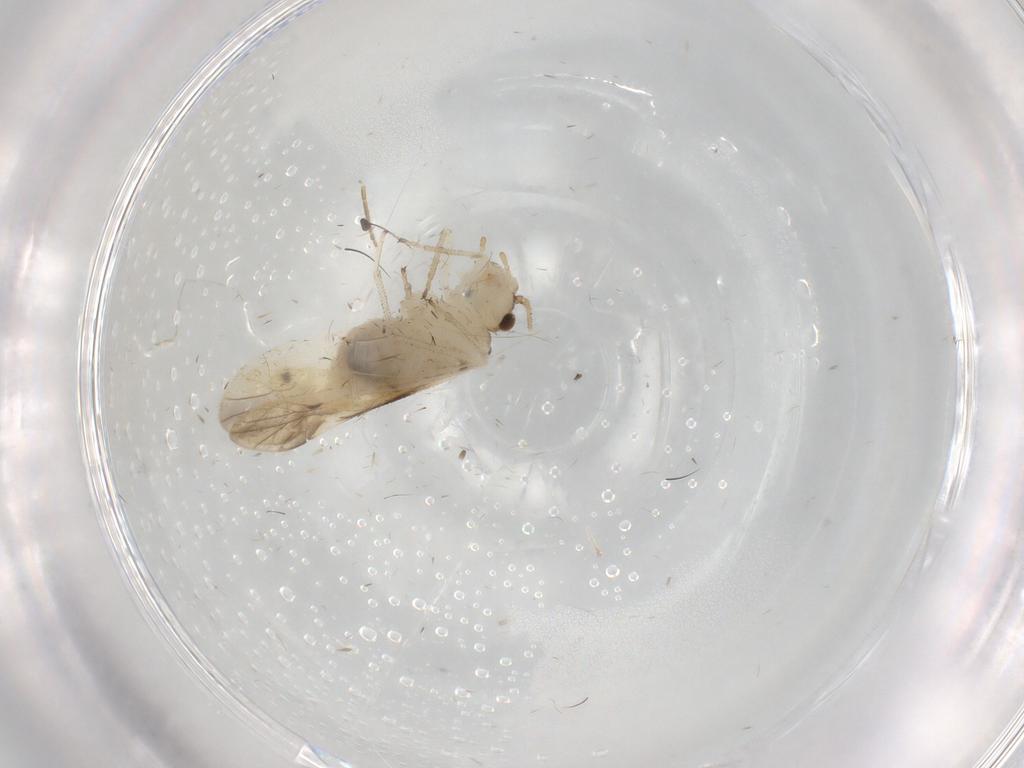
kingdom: Animalia
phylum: Arthropoda
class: Insecta
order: Psocodea
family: Caeciliusidae
